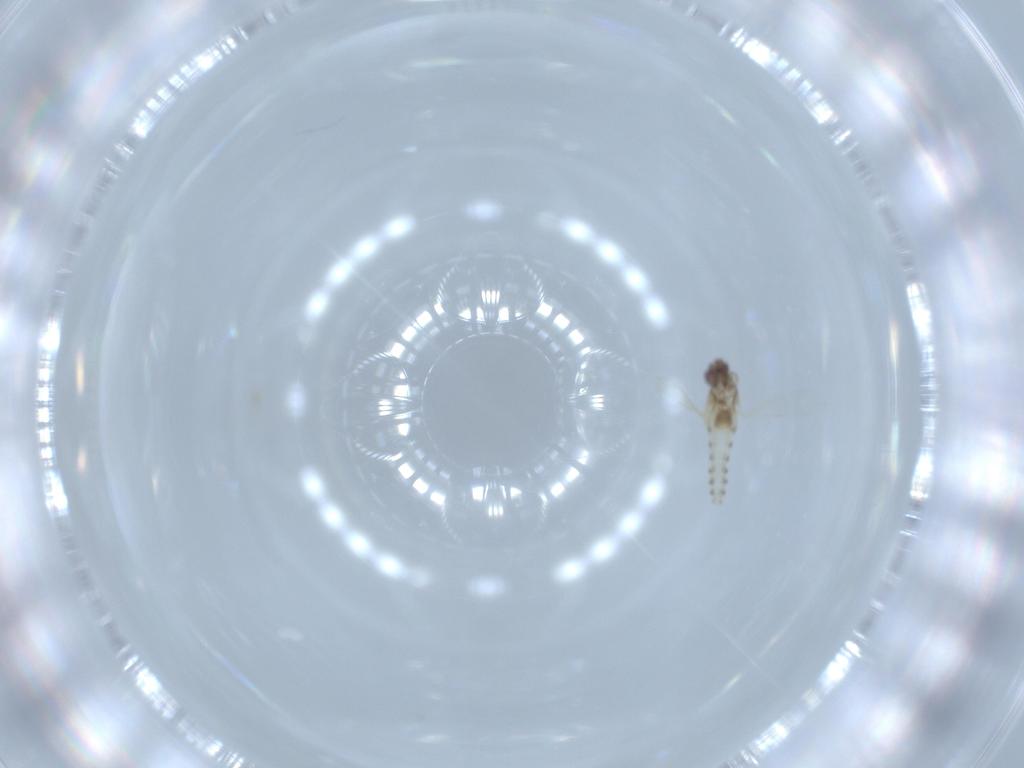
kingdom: Animalia
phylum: Arthropoda
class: Insecta
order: Diptera
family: Ceratopogonidae
